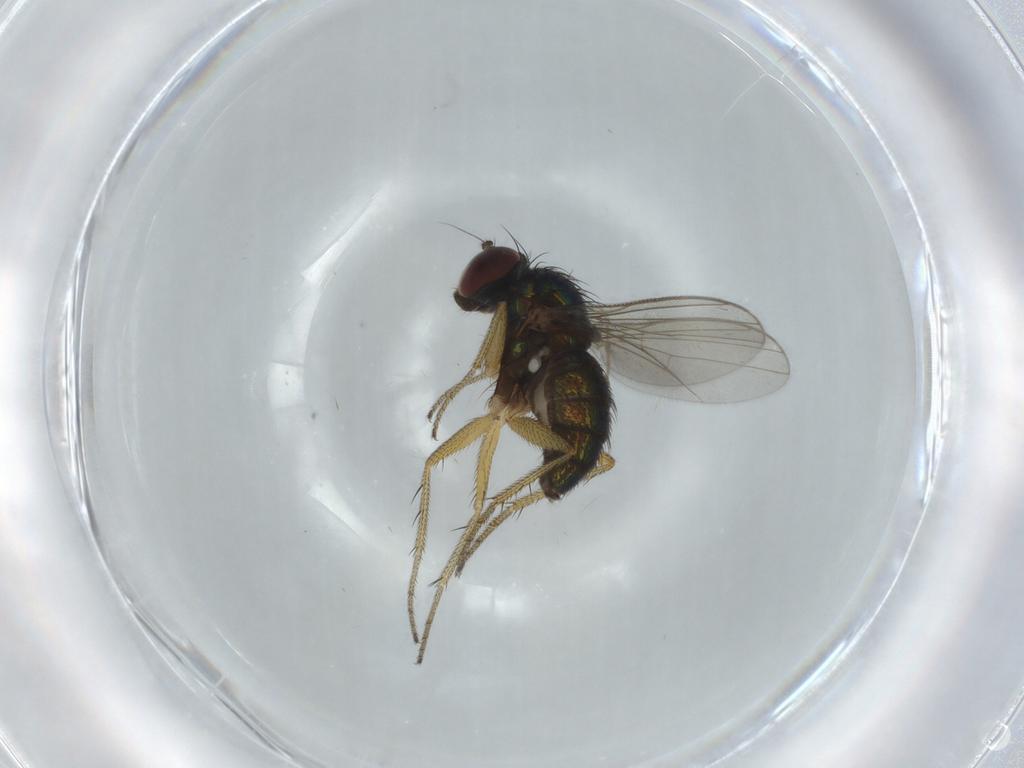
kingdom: Animalia
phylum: Arthropoda
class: Insecta
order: Diptera
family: Dolichopodidae
